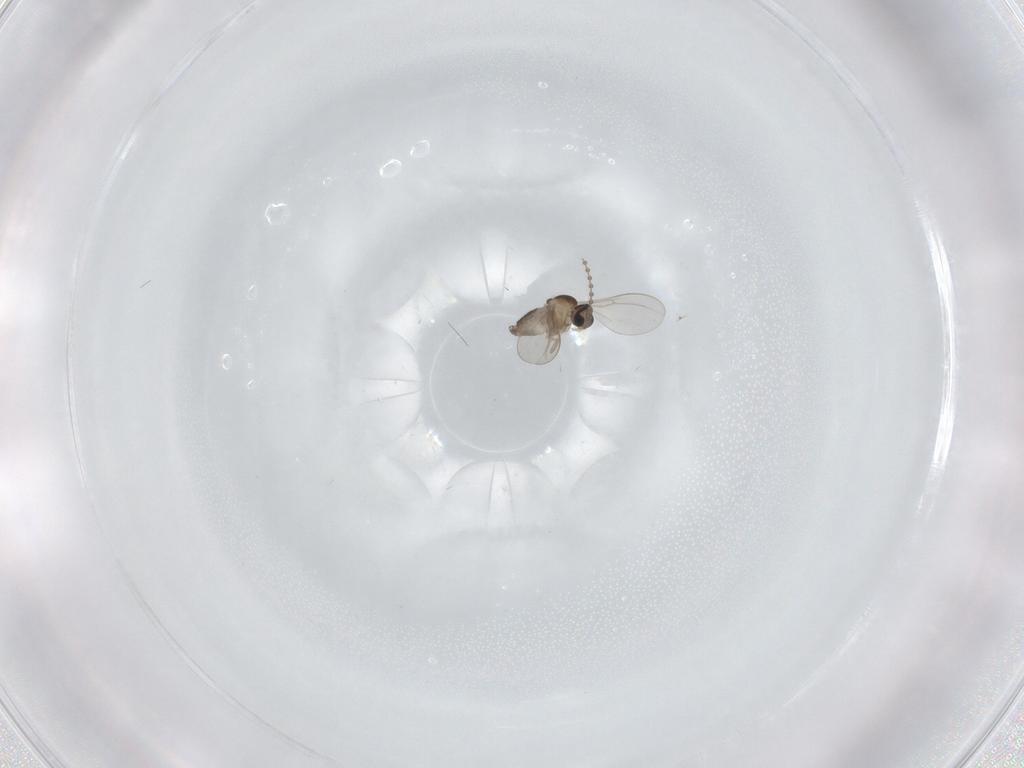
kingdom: Animalia
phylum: Arthropoda
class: Insecta
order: Diptera
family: Cecidomyiidae
